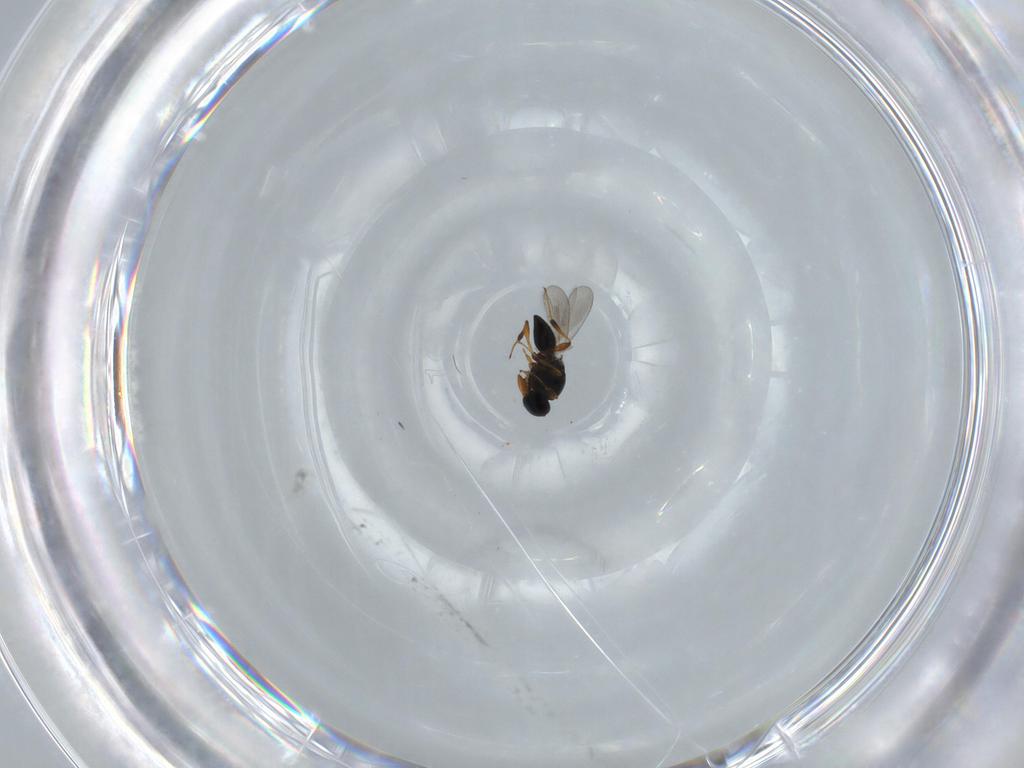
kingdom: Animalia
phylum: Arthropoda
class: Insecta
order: Hymenoptera
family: Platygastridae
